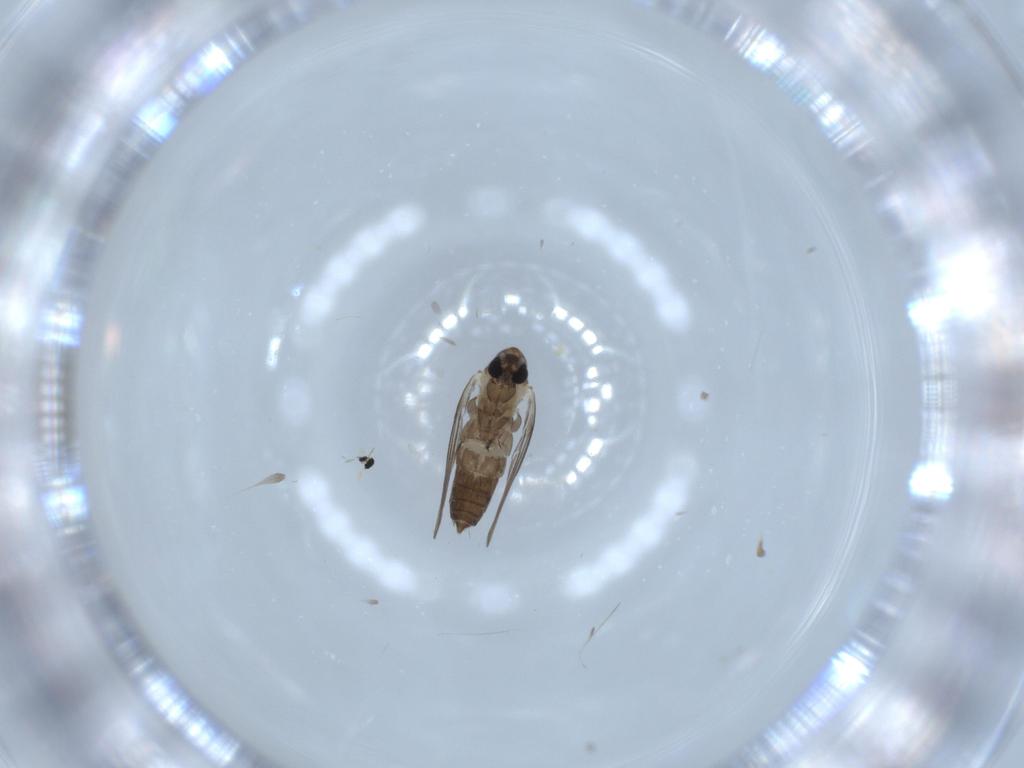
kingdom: Animalia
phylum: Arthropoda
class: Insecta
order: Diptera
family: Psychodidae
